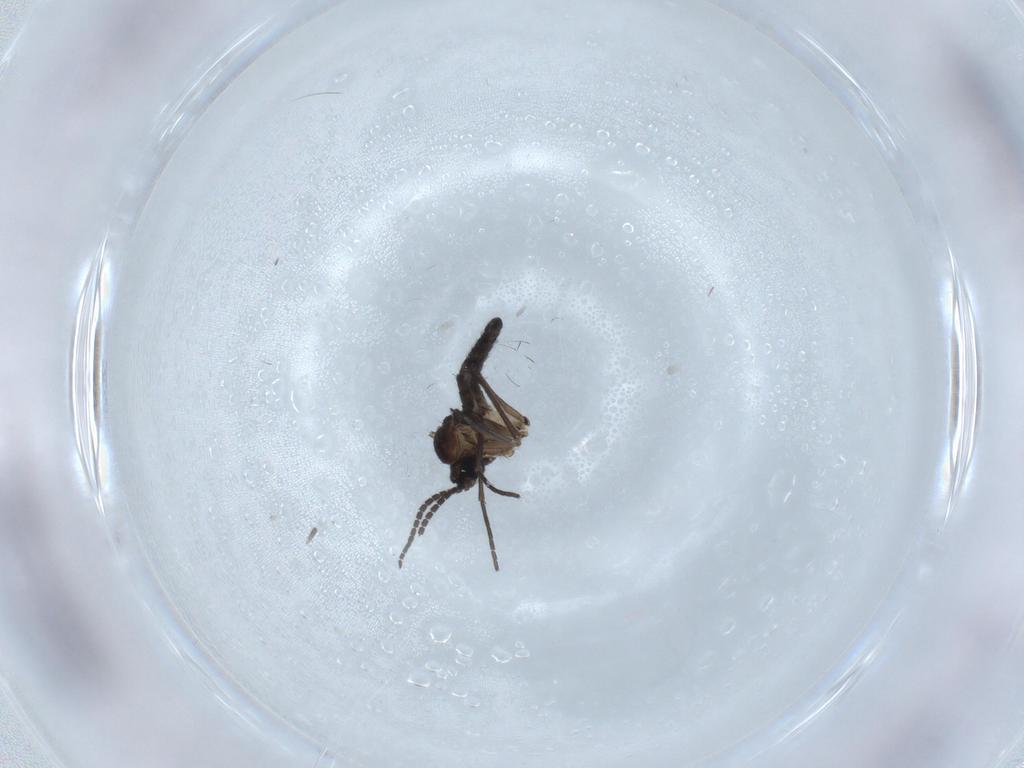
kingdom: Animalia
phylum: Arthropoda
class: Insecta
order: Diptera
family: Sciaridae
